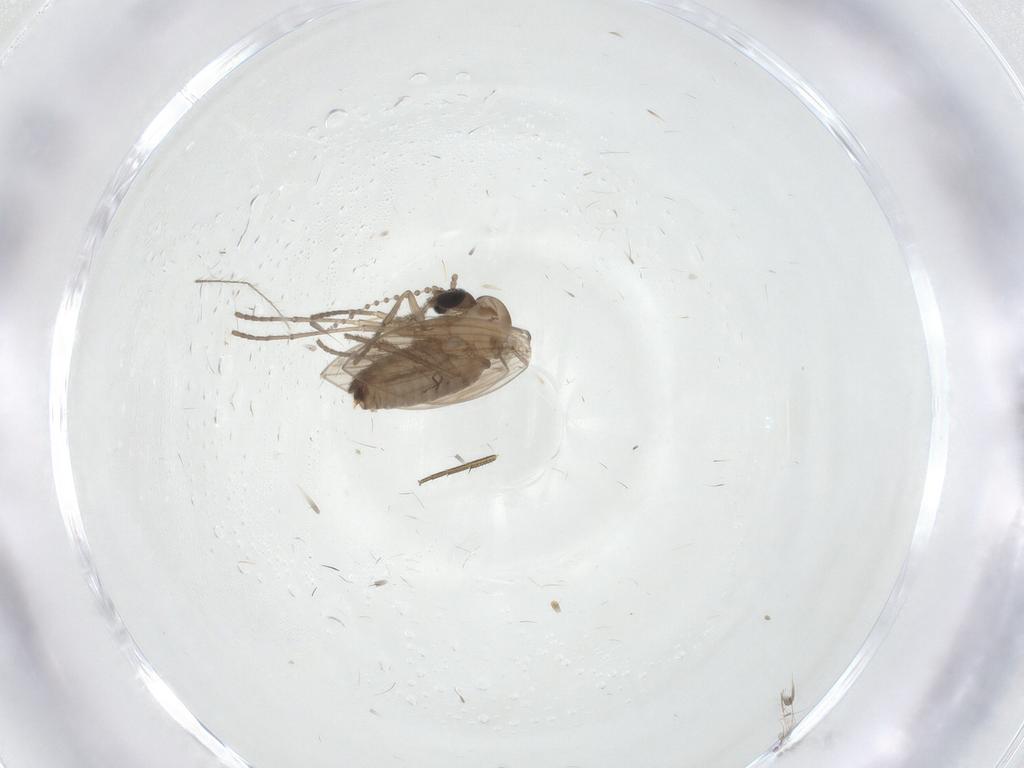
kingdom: Animalia
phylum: Arthropoda
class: Insecta
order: Diptera
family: Psychodidae
